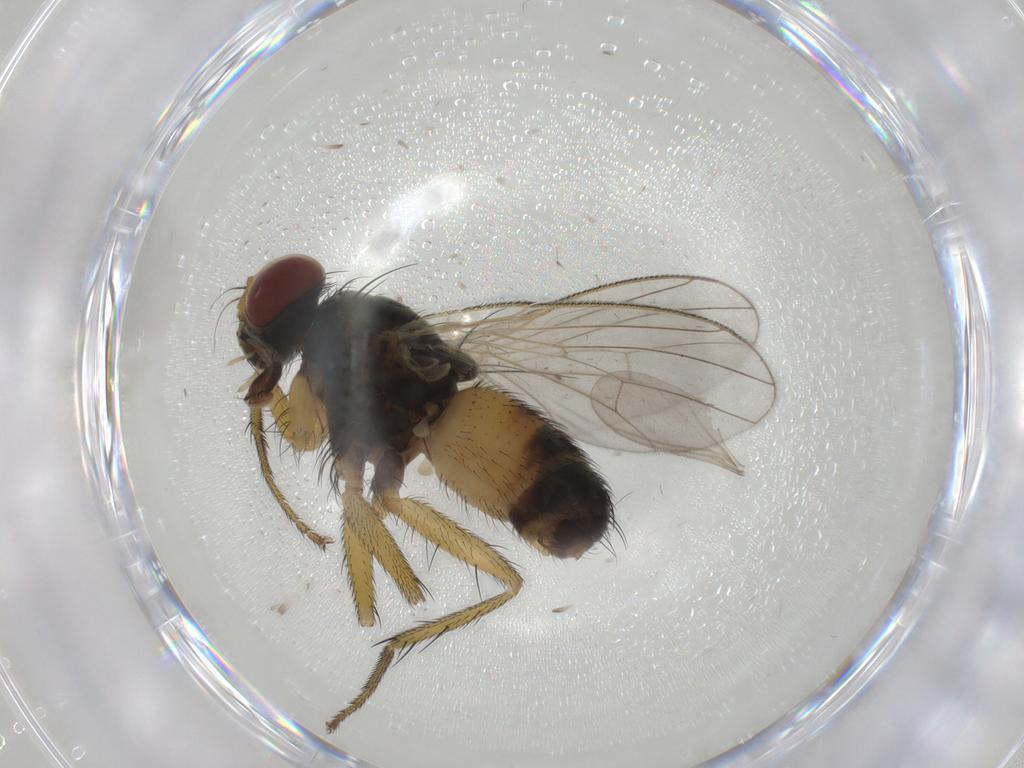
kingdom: Animalia
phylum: Arthropoda
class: Insecta
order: Diptera
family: Muscidae
